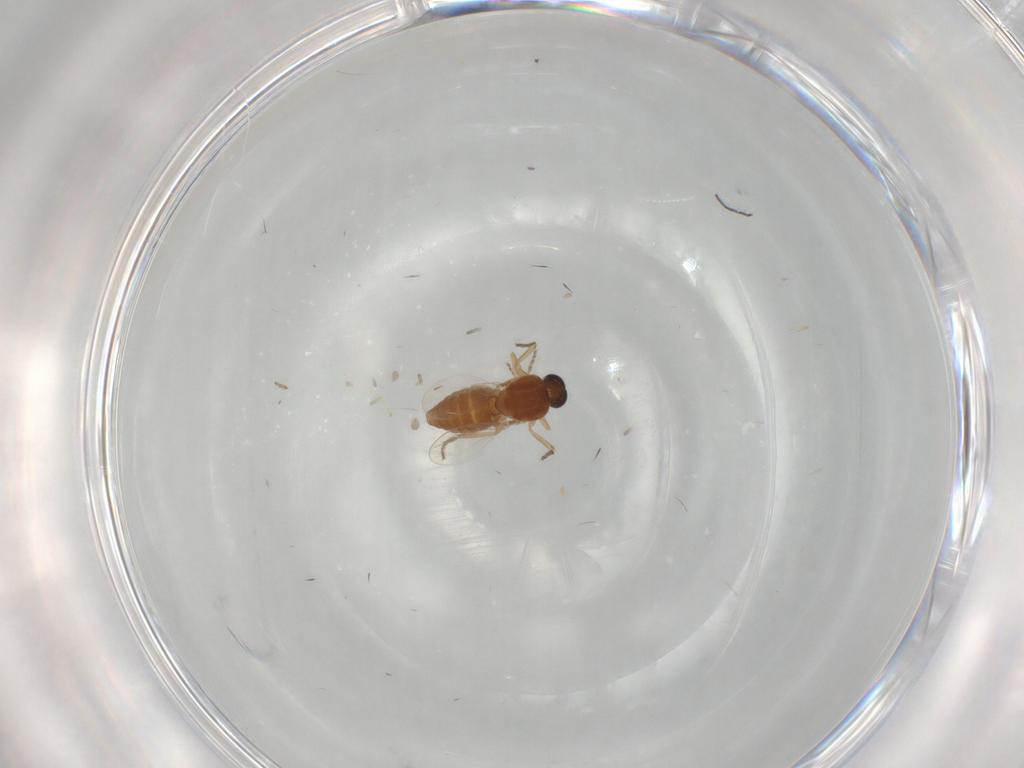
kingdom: Animalia
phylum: Arthropoda
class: Insecta
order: Diptera
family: Ceratopogonidae
